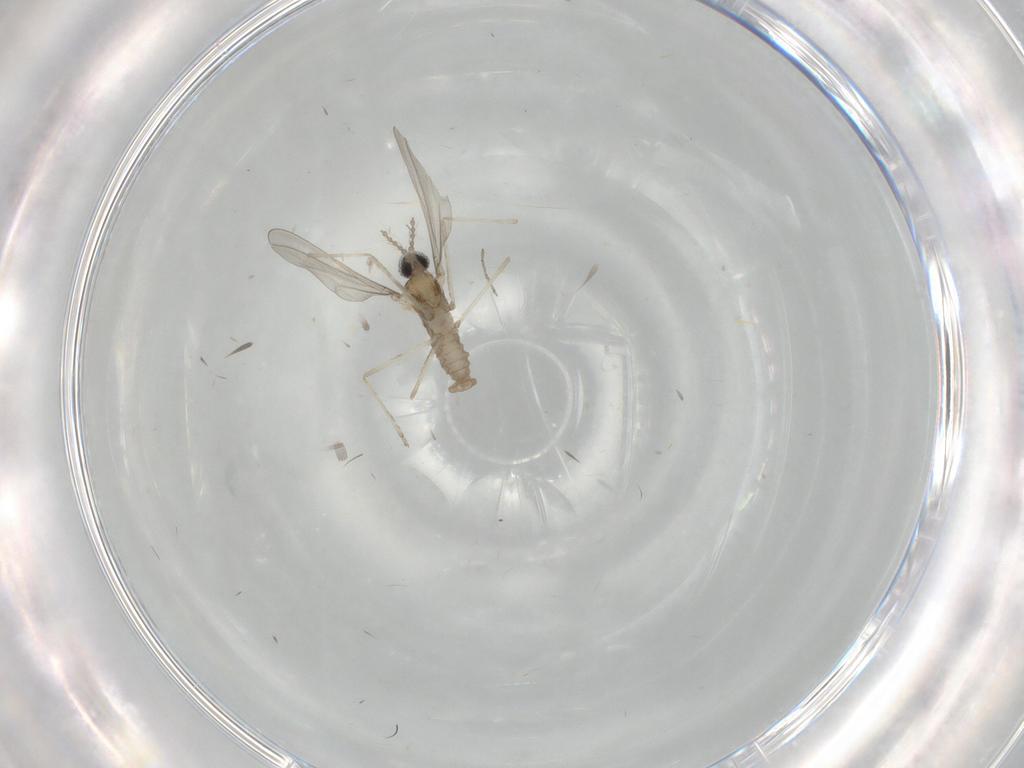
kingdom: Animalia
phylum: Arthropoda
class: Insecta
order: Diptera
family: Cecidomyiidae
